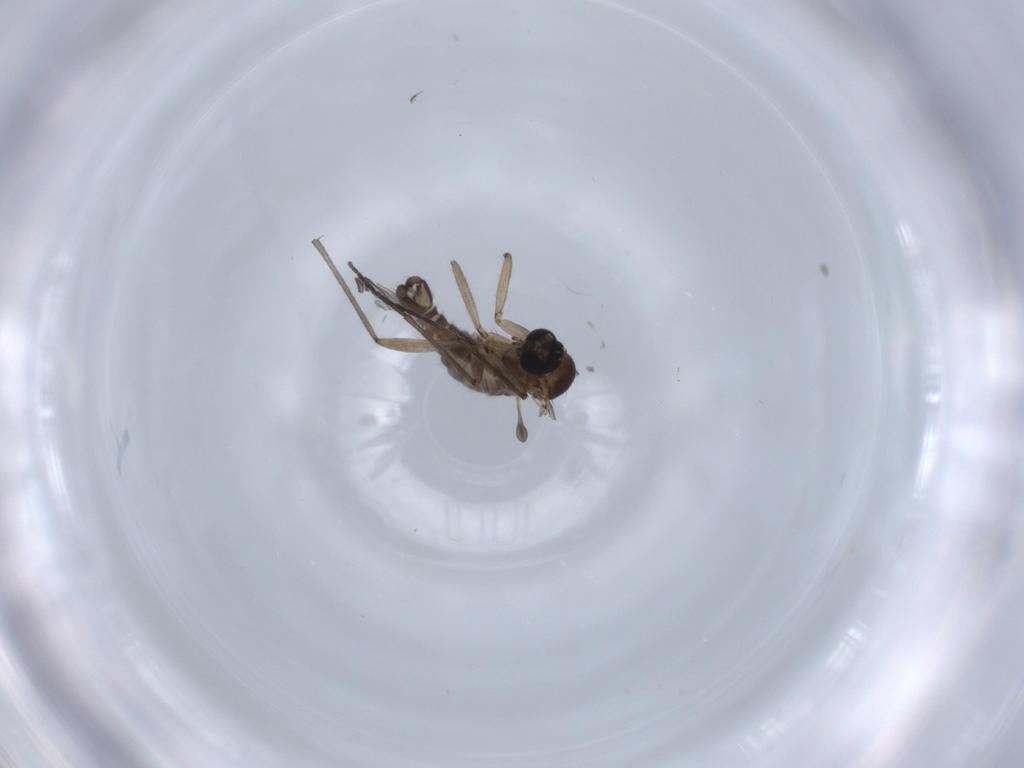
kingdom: Animalia
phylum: Arthropoda
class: Insecta
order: Diptera
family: Sciaridae
